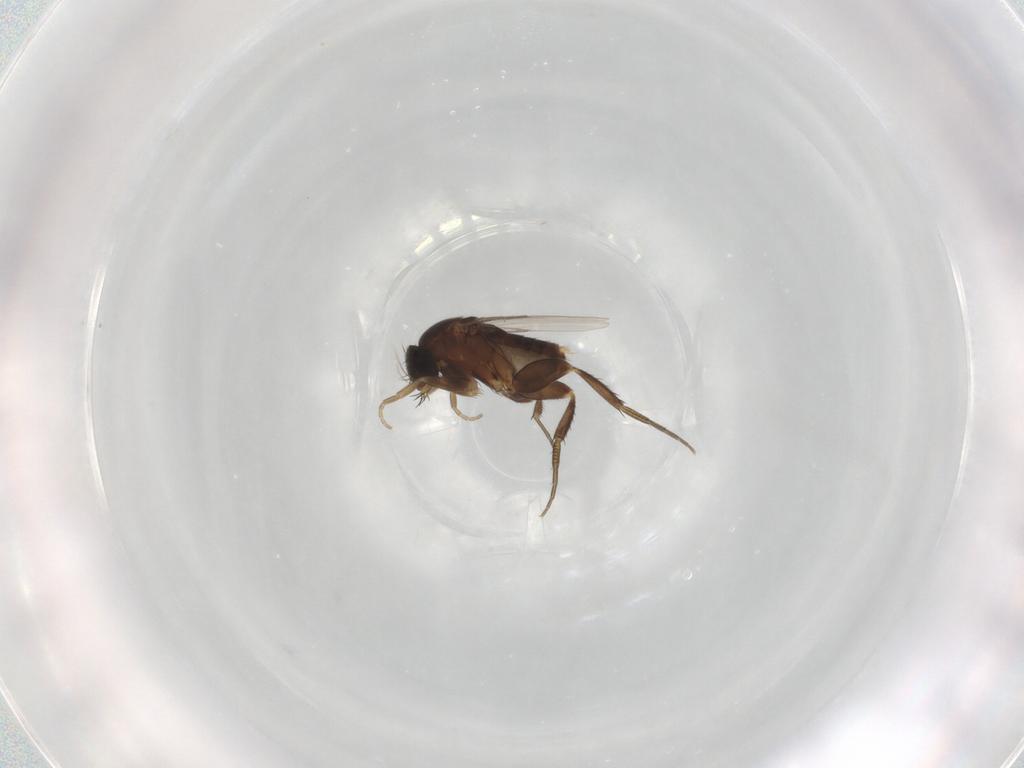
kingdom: Animalia
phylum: Arthropoda
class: Insecta
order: Diptera
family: Phoridae
